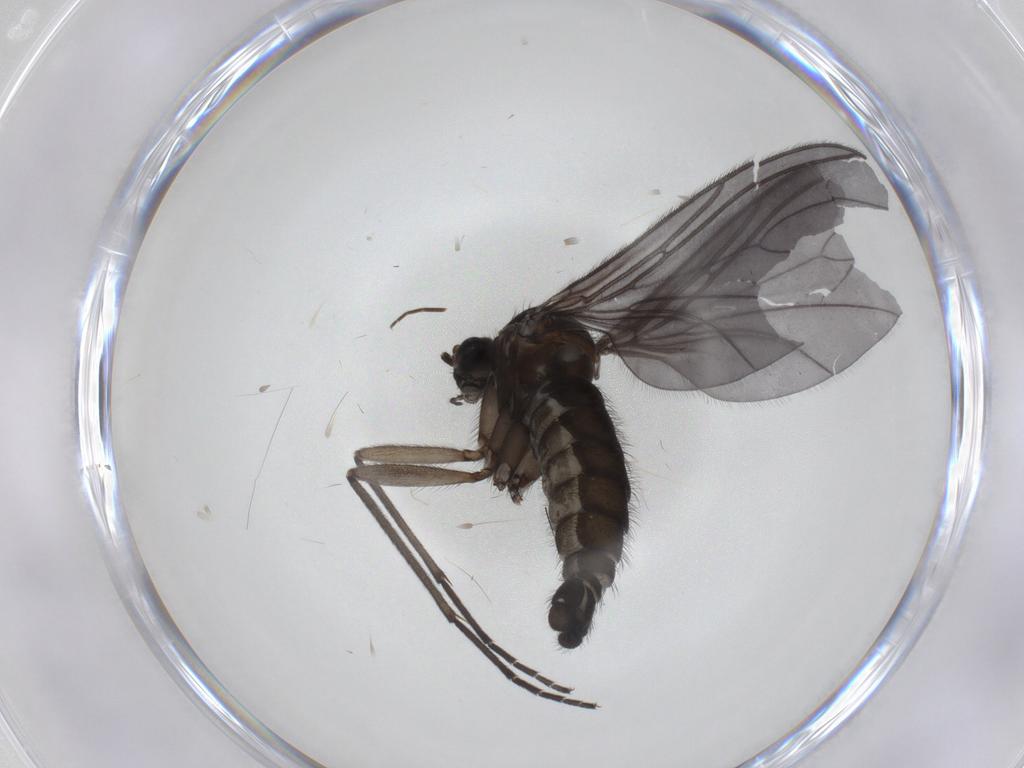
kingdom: Animalia
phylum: Arthropoda
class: Insecta
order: Diptera
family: Sciaridae
